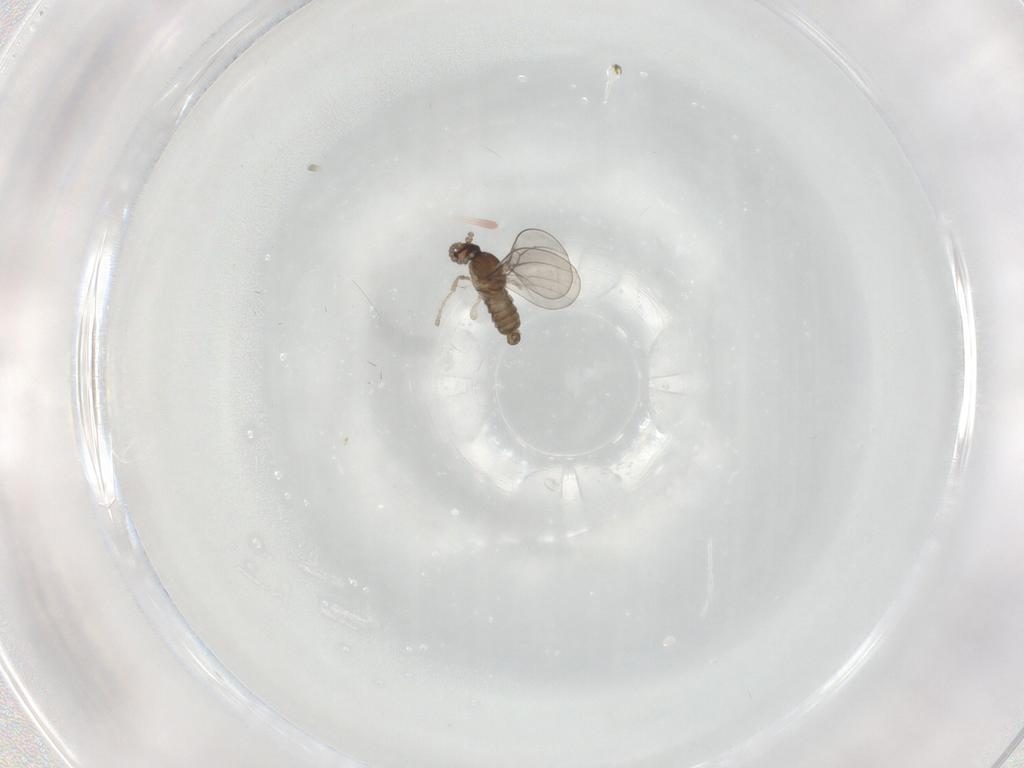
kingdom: Animalia
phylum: Arthropoda
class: Insecta
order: Diptera
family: Cecidomyiidae
